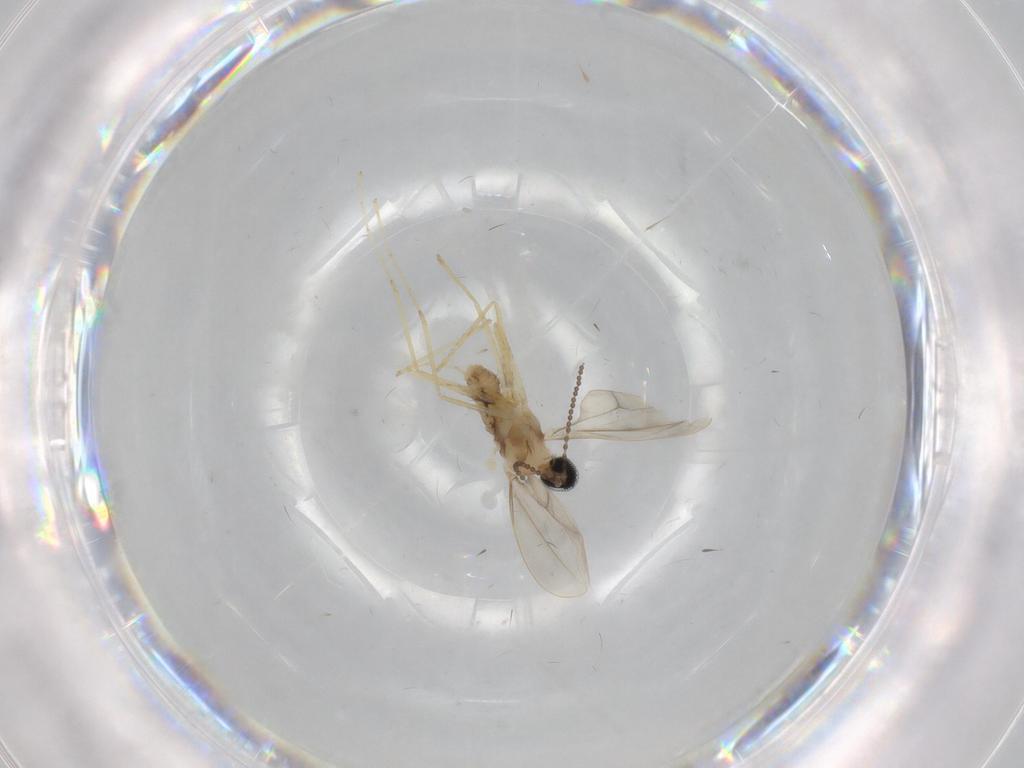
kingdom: Animalia
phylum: Arthropoda
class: Insecta
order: Diptera
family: Cecidomyiidae
